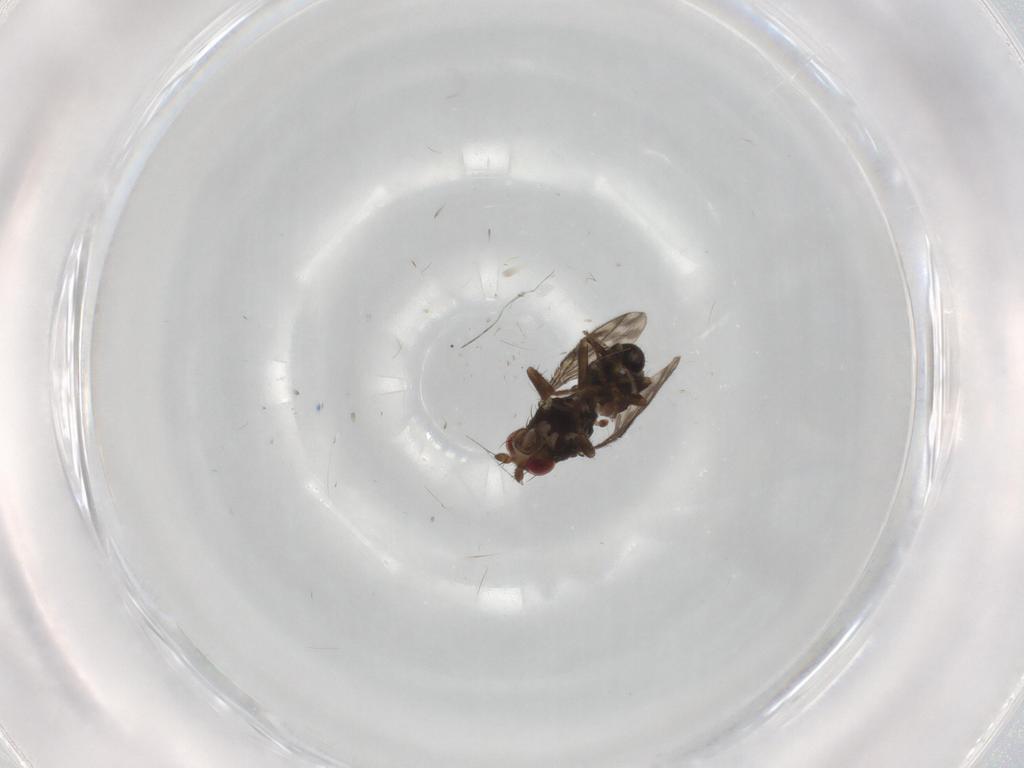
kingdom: Animalia
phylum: Arthropoda
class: Insecta
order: Diptera
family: Sphaeroceridae
